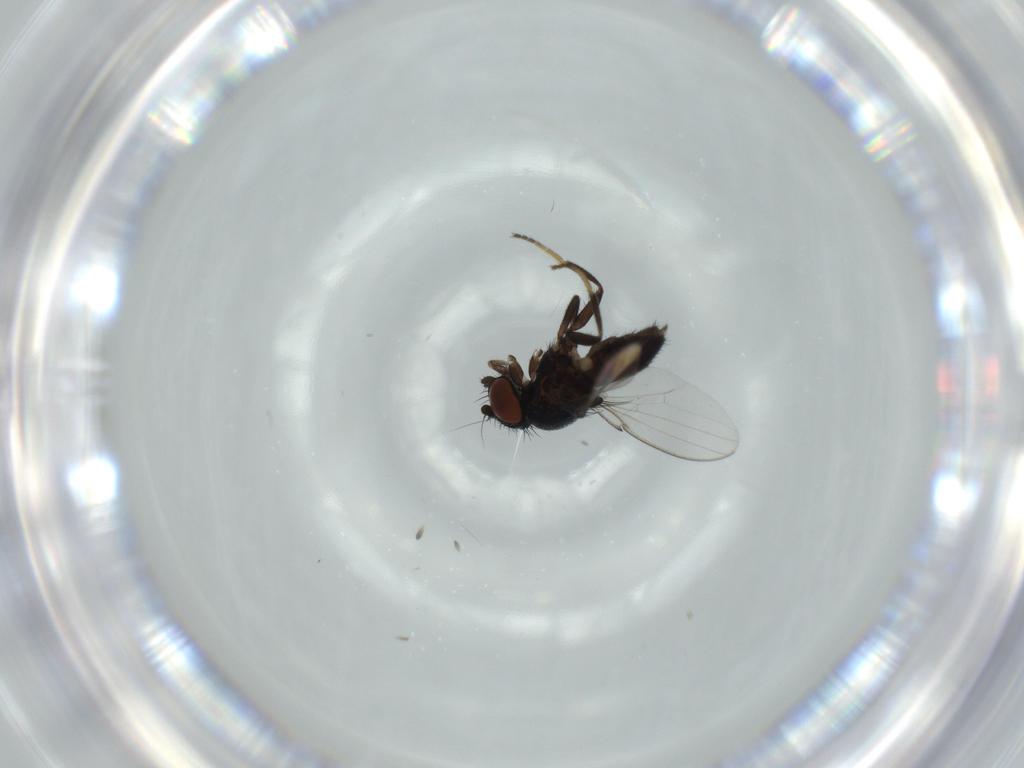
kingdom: Animalia
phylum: Arthropoda
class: Insecta
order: Diptera
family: Milichiidae
